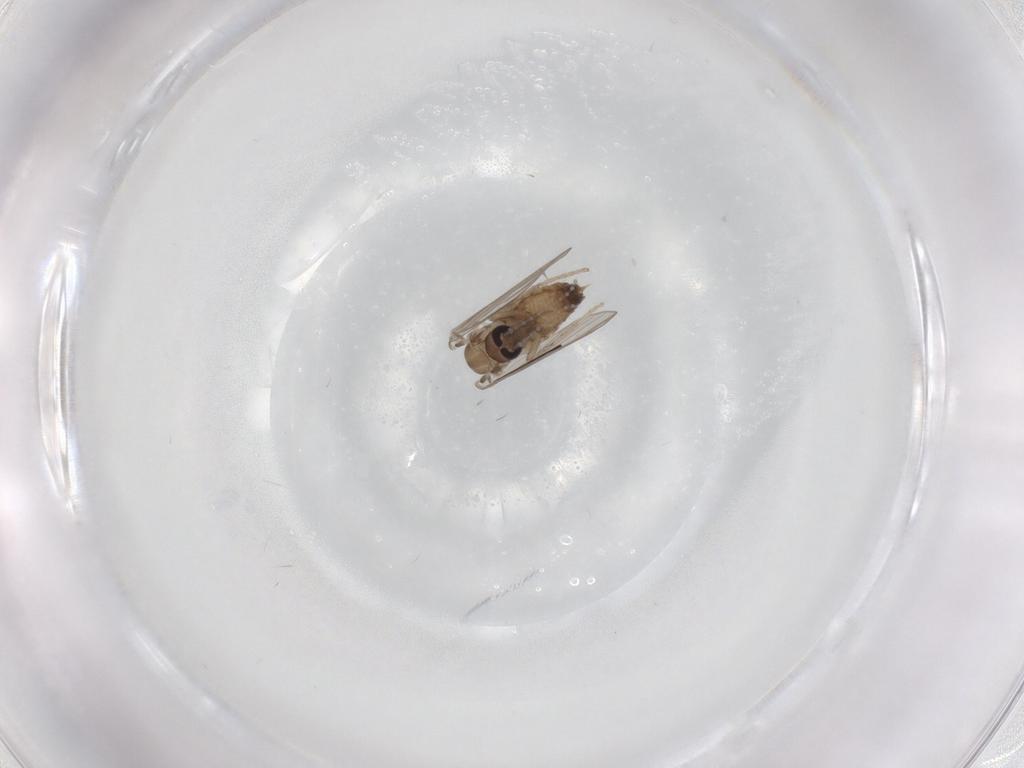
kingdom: Animalia
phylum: Arthropoda
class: Insecta
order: Diptera
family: Psychodidae
